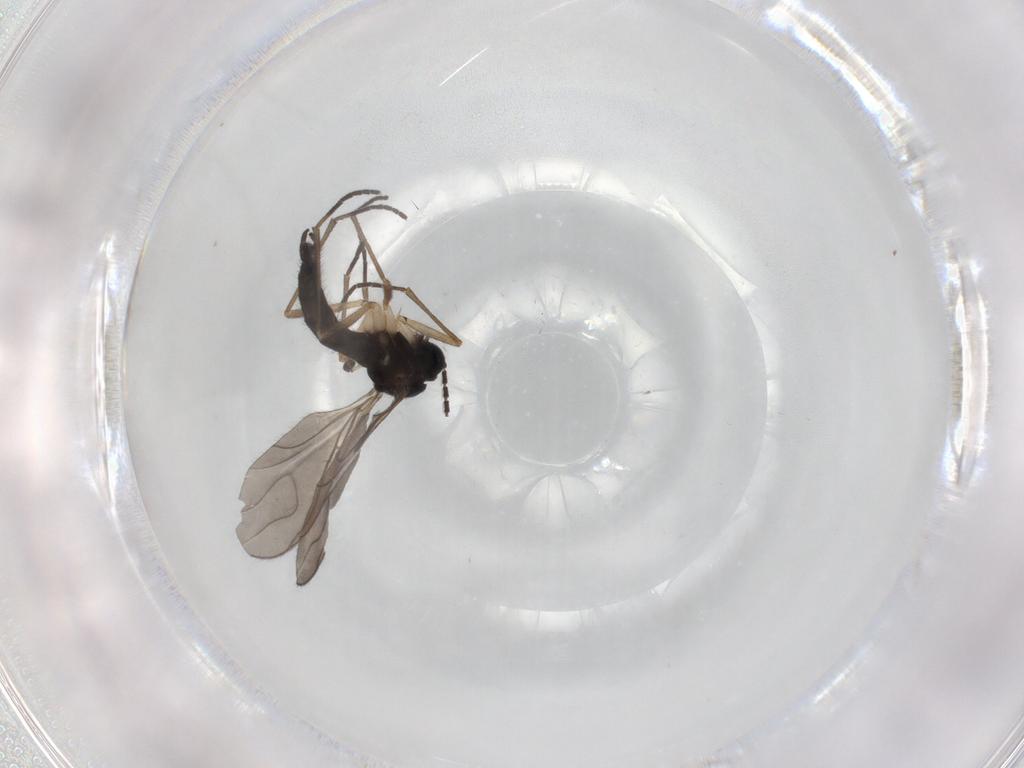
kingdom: Animalia
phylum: Arthropoda
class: Insecta
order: Diptera
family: Sciaridae
